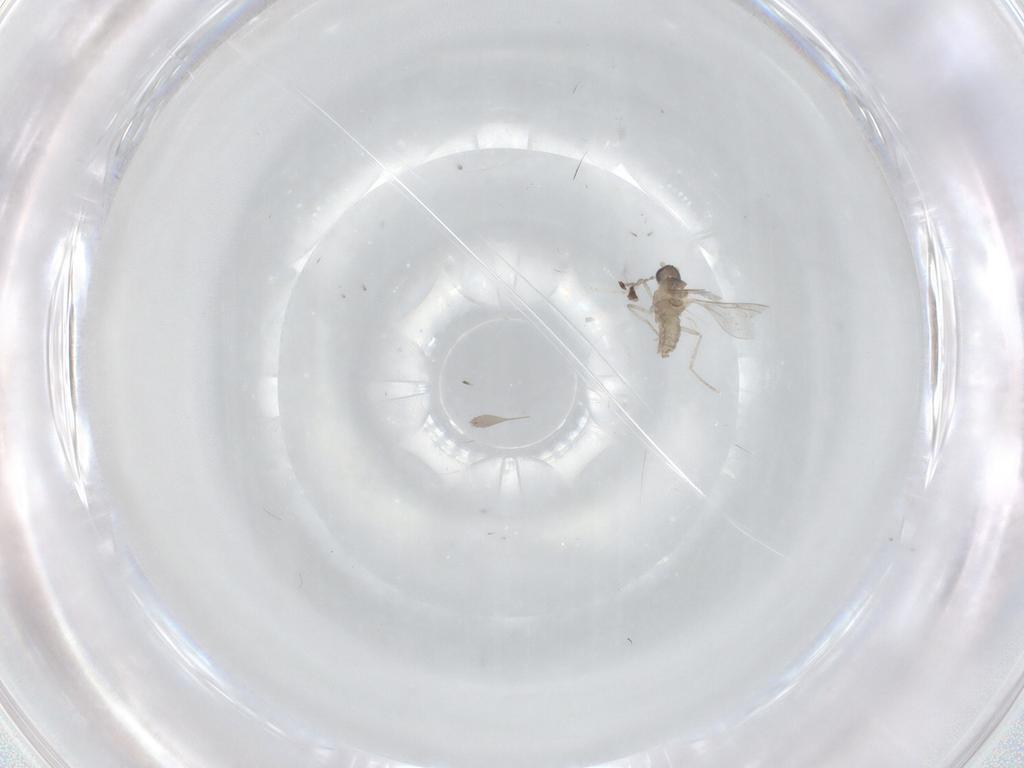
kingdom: Animalia
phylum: Arthropoda
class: Insecta
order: Diptera
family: Cecidomyiidae
